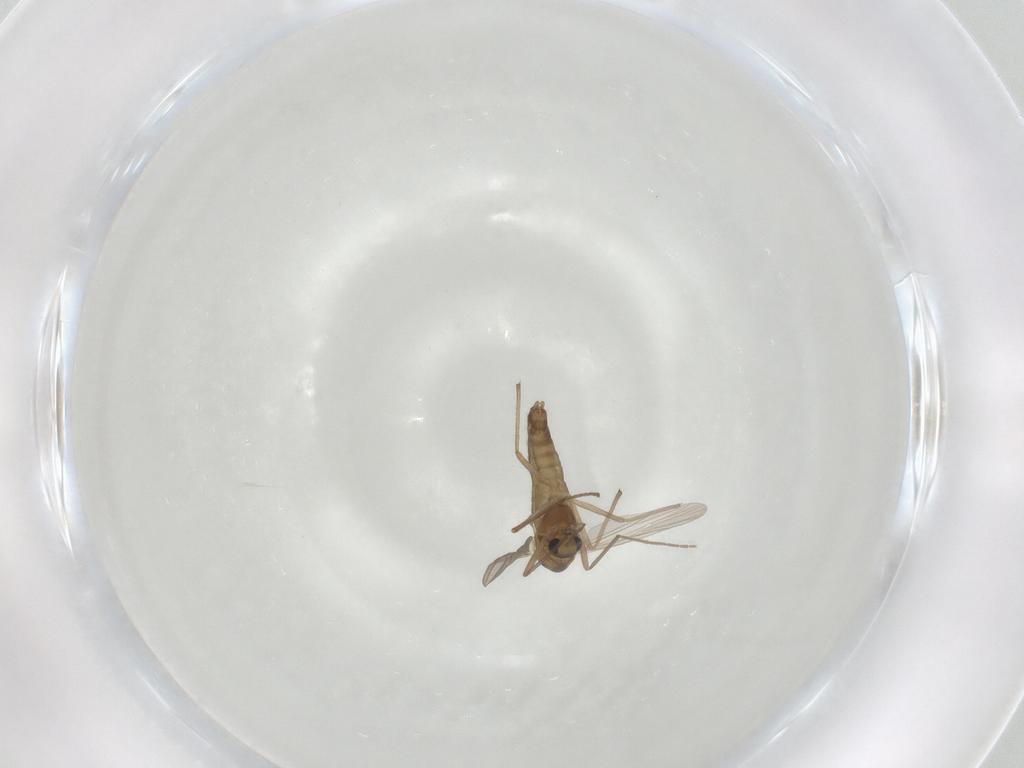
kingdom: Animalia
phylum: Arthropoda
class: Insecta
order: Diptera
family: Chironomidae
